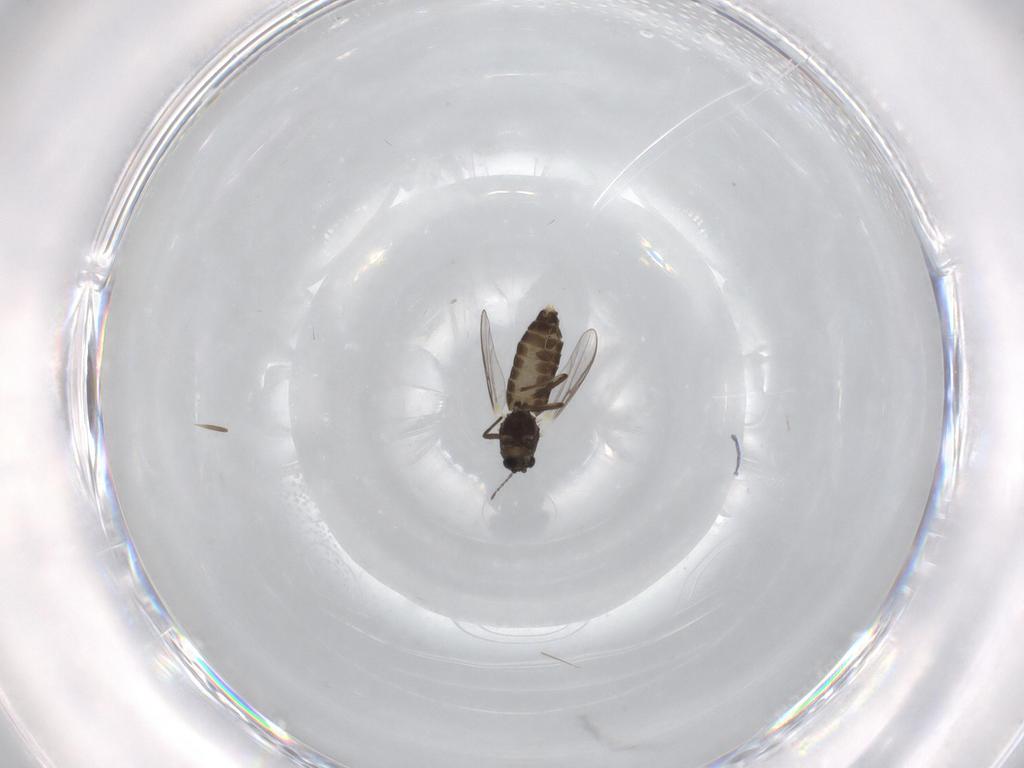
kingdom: Animalia
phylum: Arthropoda
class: Insecta
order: Diptera
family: Chironomidae
